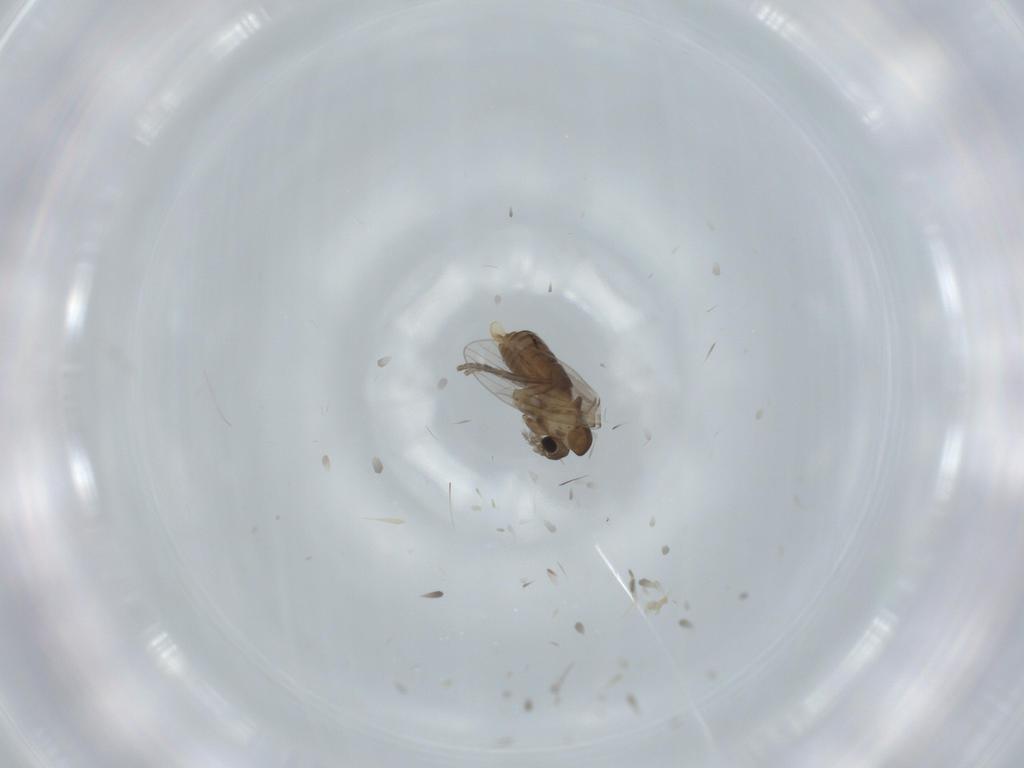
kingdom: Animalia
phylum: Arthropoda
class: Insecta
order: Diptera
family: Psychodidae
